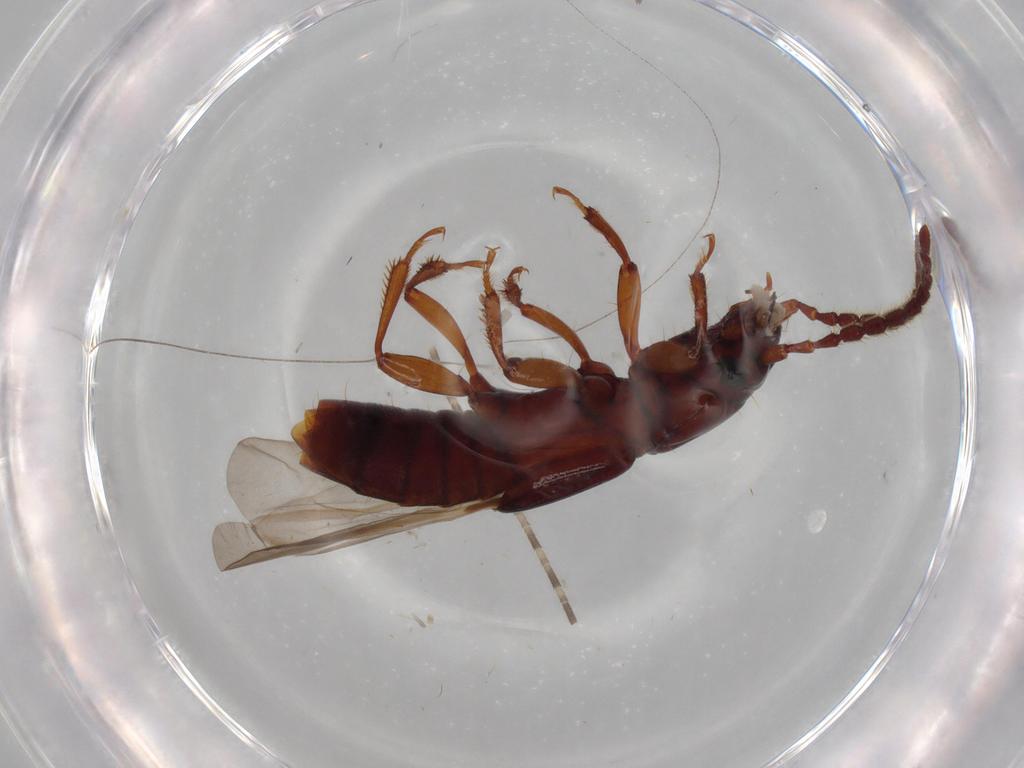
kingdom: Animalia
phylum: Arthropoda
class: Insecta
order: Coleoptera
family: Staphylinidae
